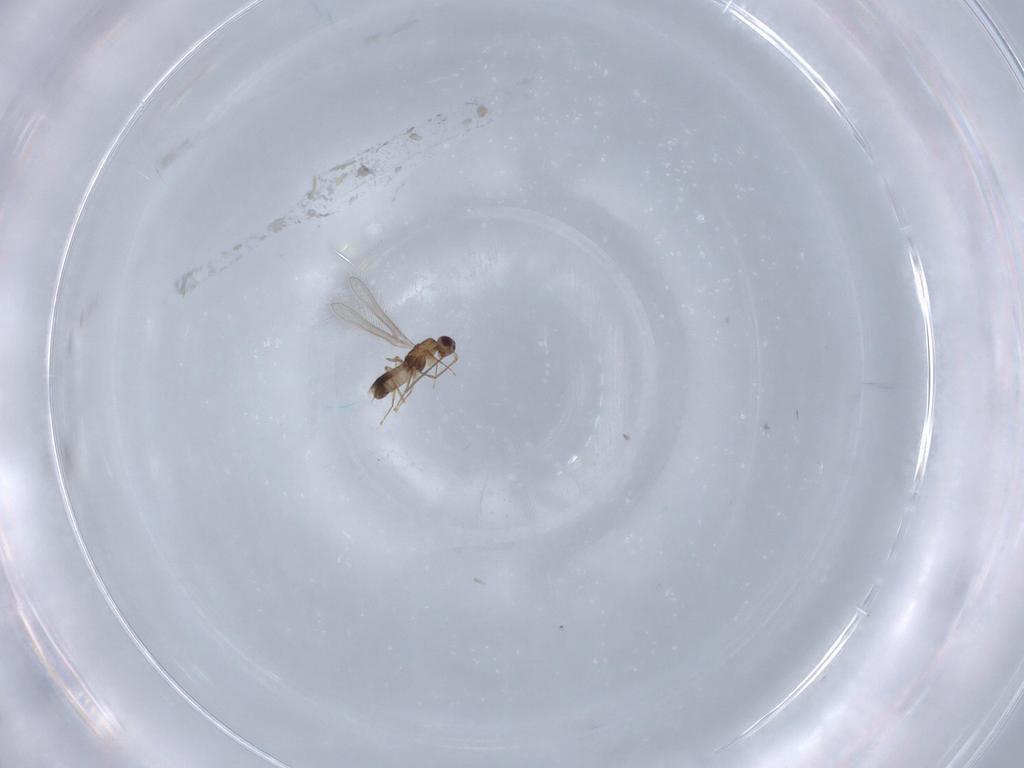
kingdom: Animalia
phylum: Arthropoda
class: Insecta
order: Hymenoptera
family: Mymaridae
